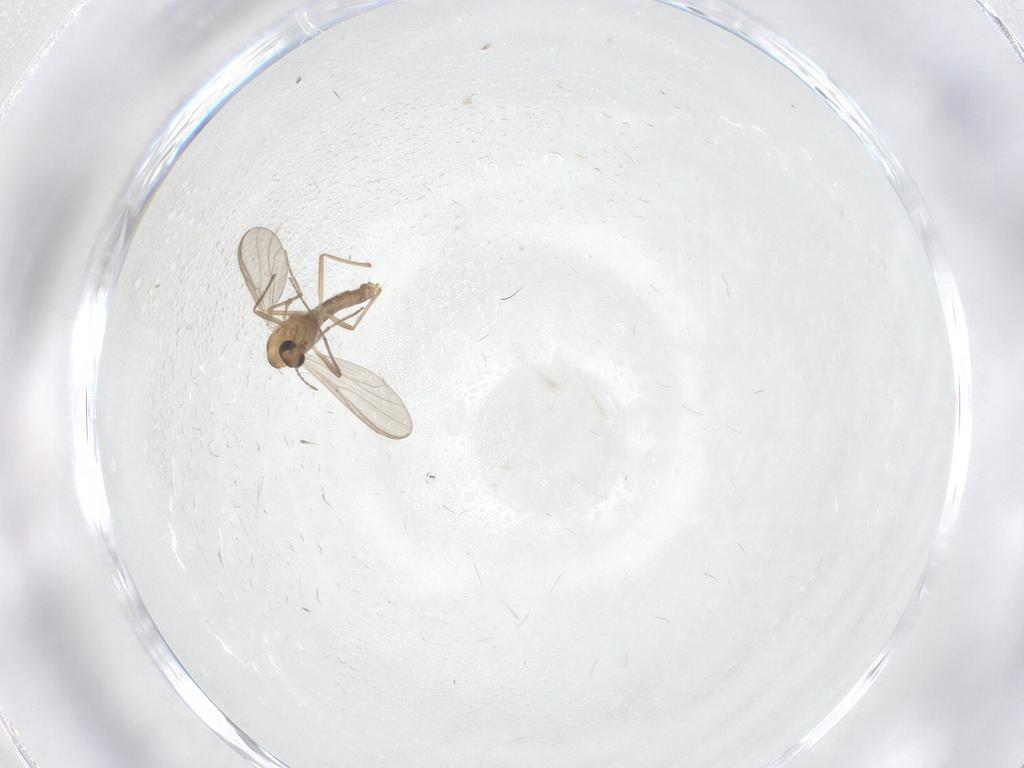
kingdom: Animalia
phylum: Arthropoda
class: Insecta
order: Diptera
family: Chironomidae
